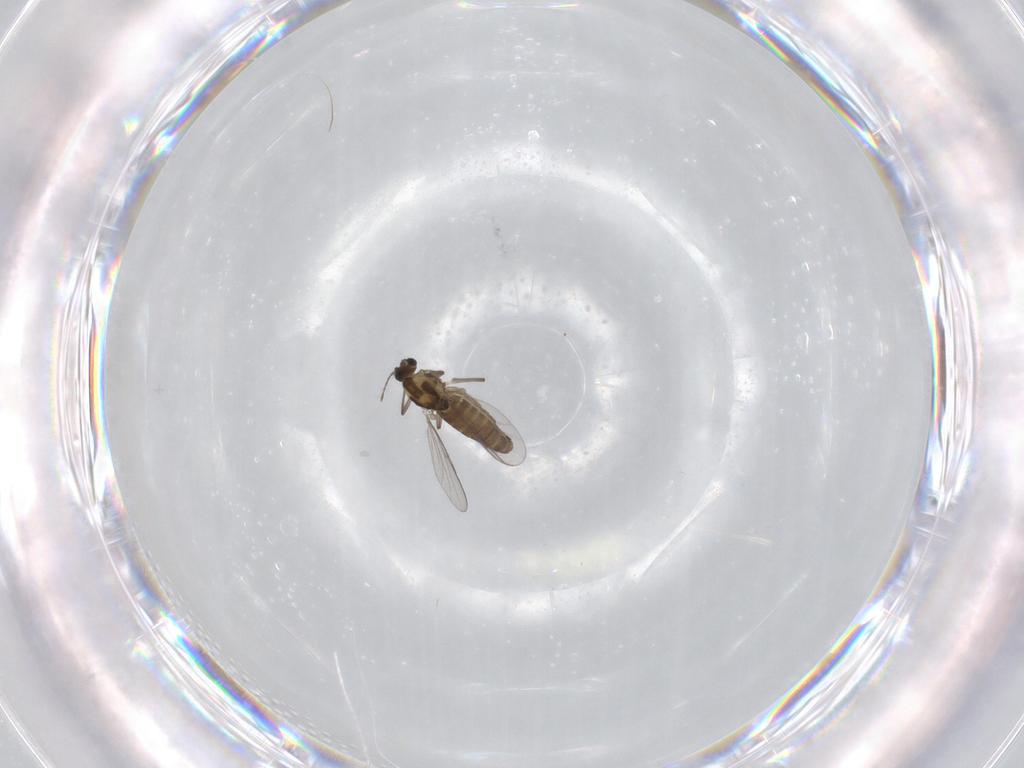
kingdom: Animalia
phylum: Arthropoda
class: Insecta
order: Diptera
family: Chironomidae
